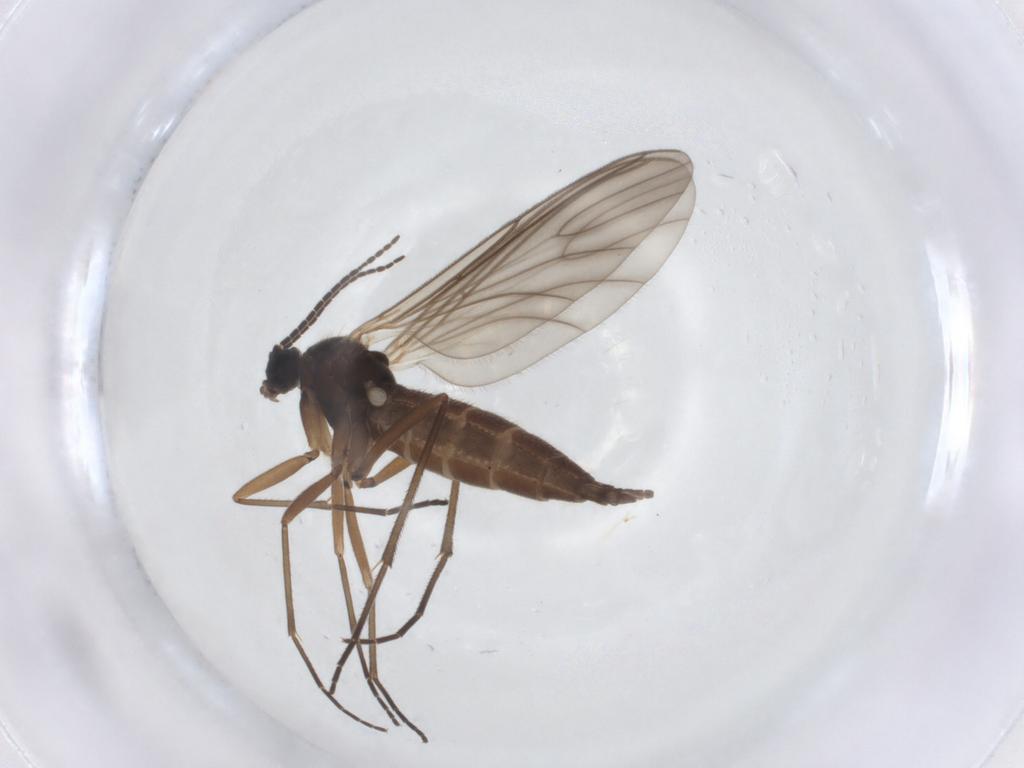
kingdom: Animalia
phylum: Arthropoda
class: Insecta
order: Diptera
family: Sciaridae
